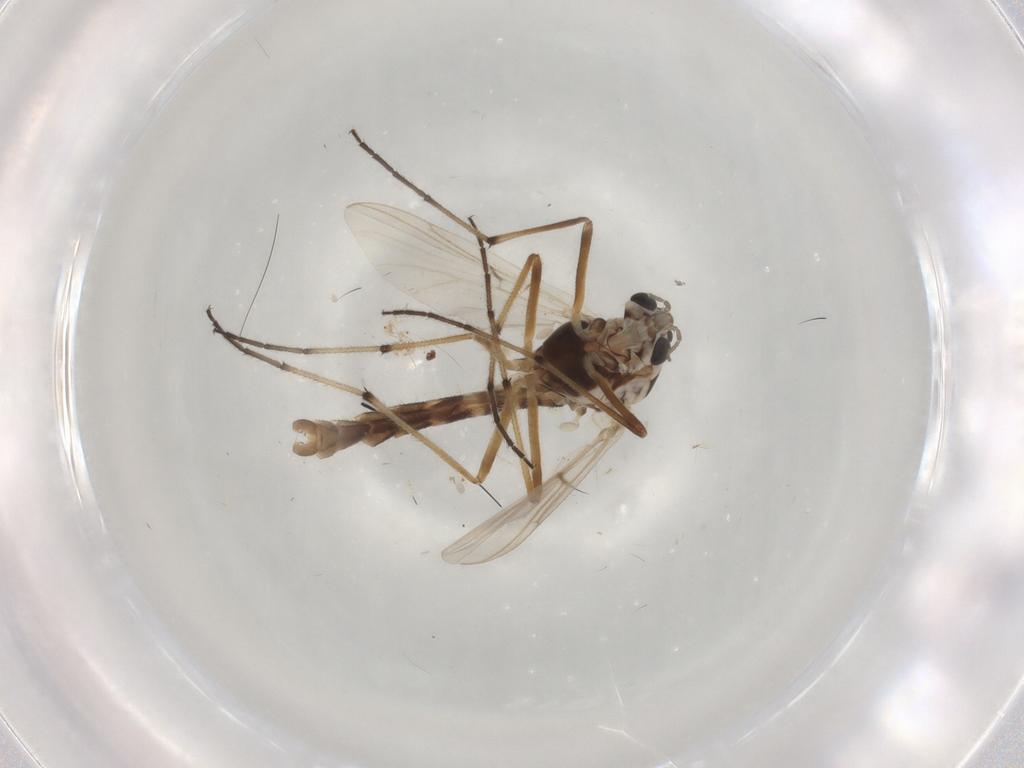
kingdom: Animalia
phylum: Arthropoda
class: Insecta
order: Diptera
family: Chironomidae
